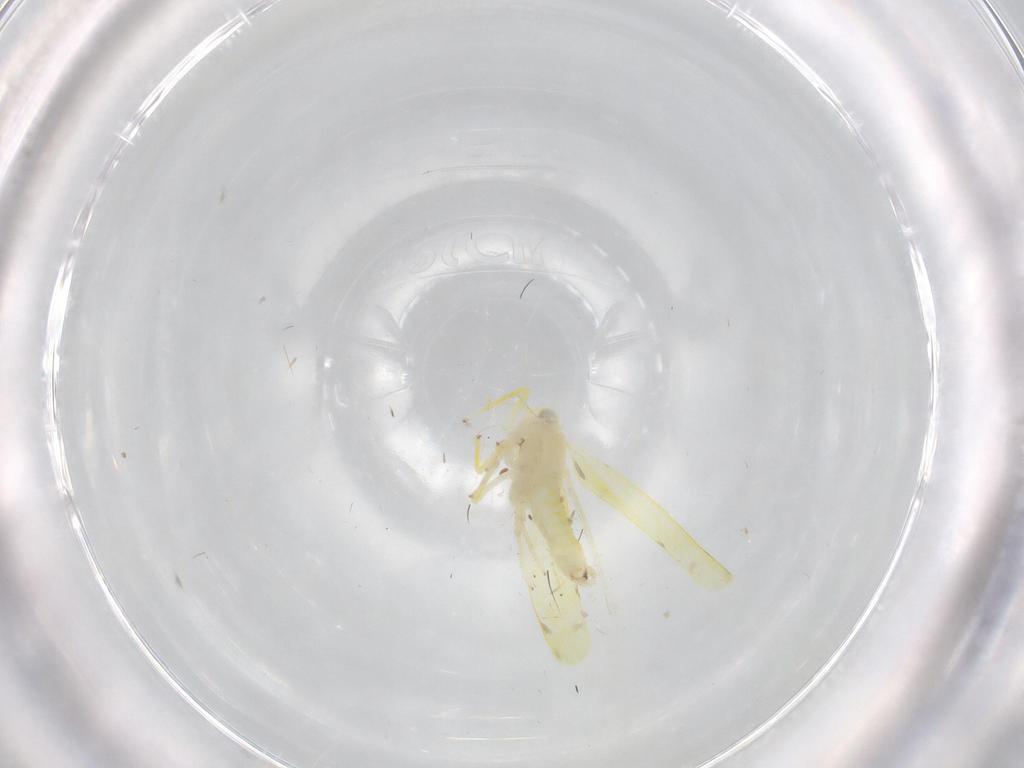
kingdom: Animalia
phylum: Arthropoda
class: Insecta
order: Hemiptera
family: Cicadellidae
